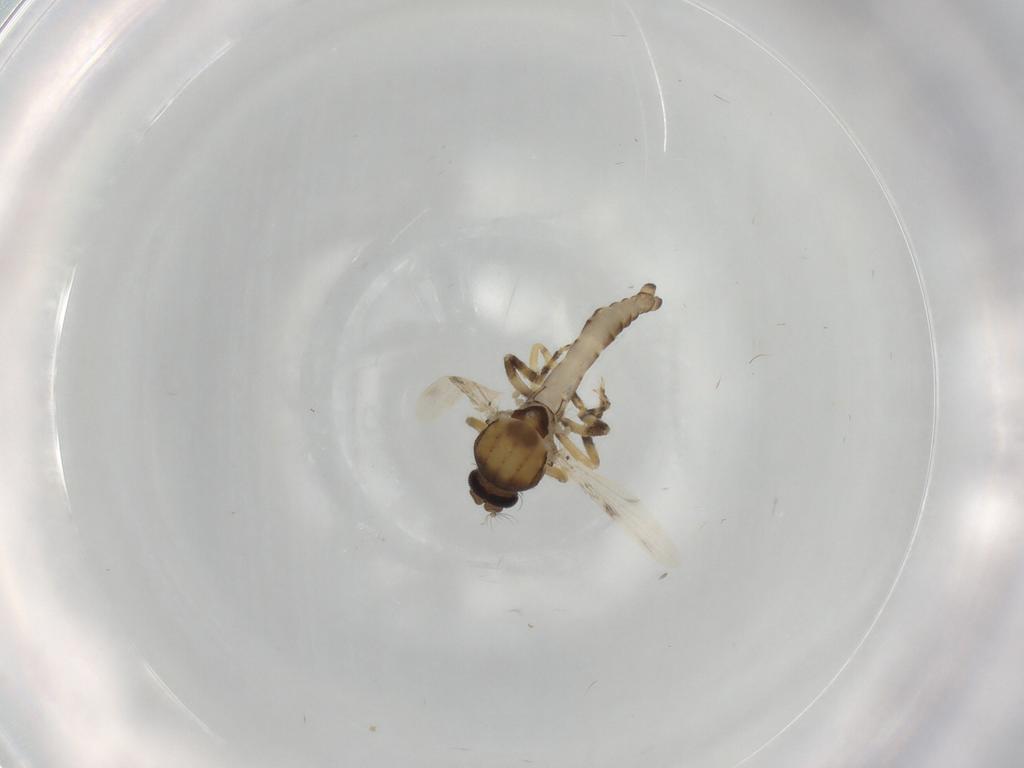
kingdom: Animalia
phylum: Arthropoda
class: Insecta
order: Diptera
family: Ceratopogonidae
